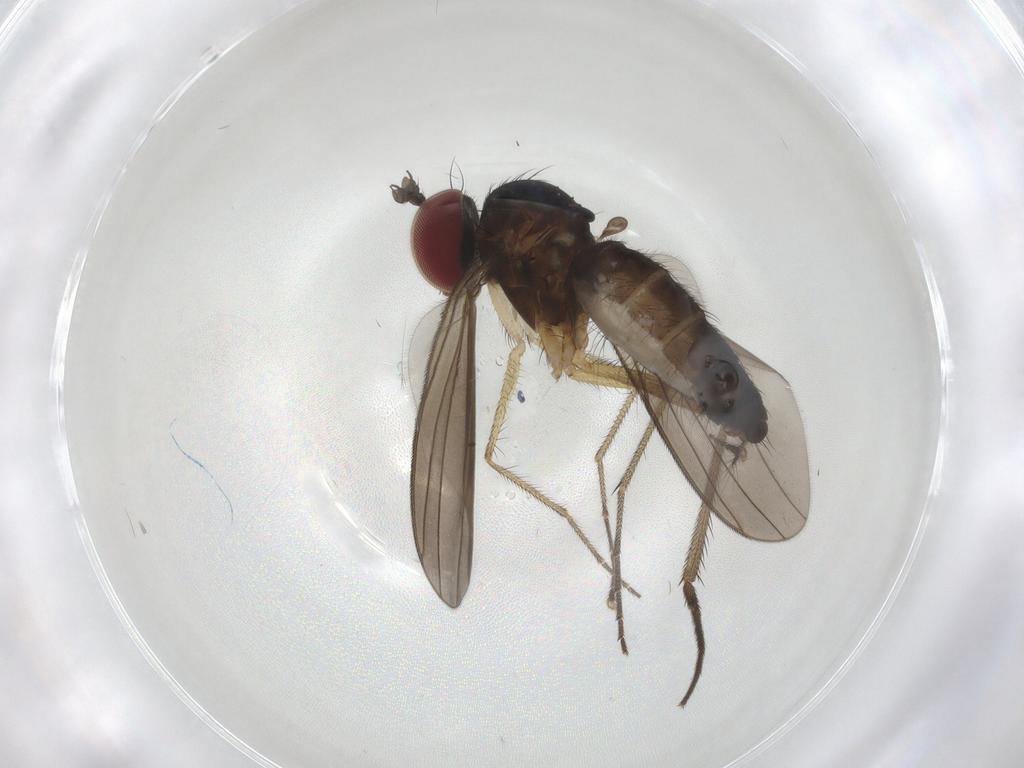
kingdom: Animalia
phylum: Arthropoda
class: Insecta
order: Diptera
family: Dolichopodidae
